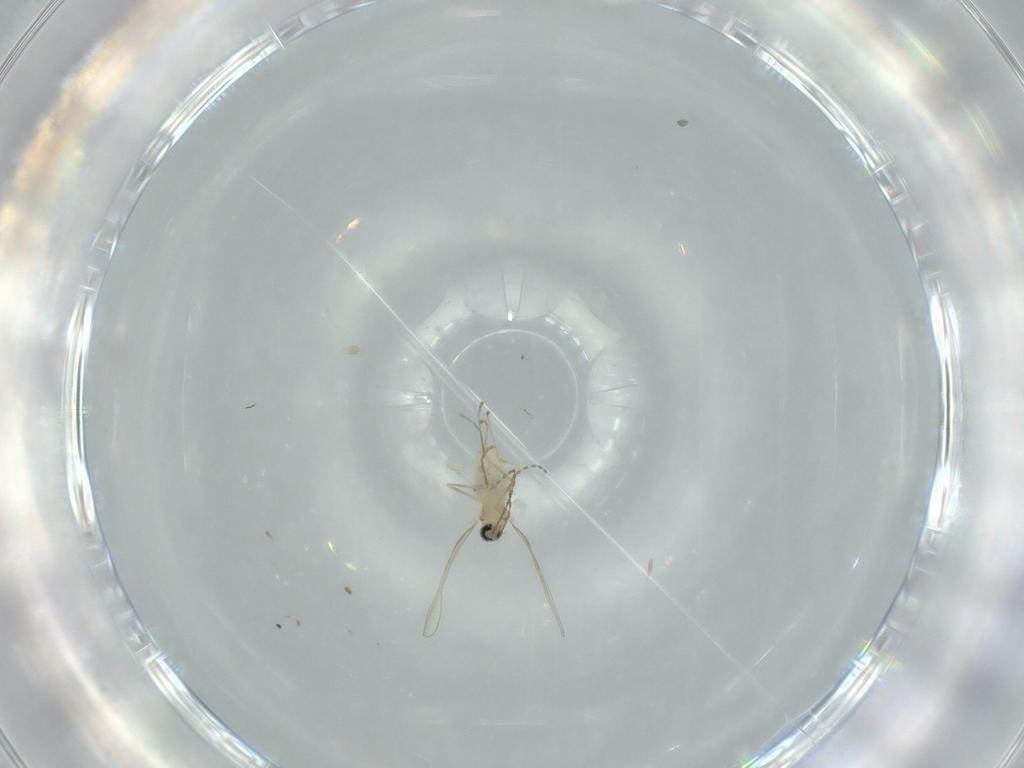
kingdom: Animalia
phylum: Arthropoda
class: Insecta
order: Diptera
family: Cecidomyiidae
